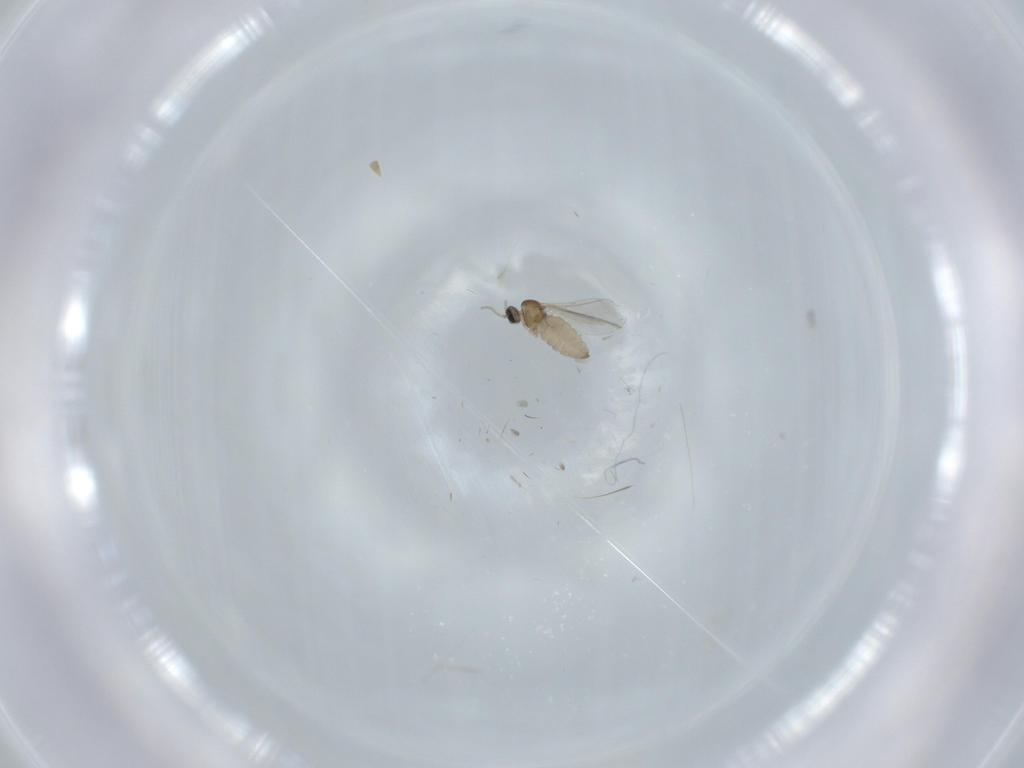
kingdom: Animalia
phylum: Arthropoda
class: Insecta
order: Diptera
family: Cecidomyiidae
